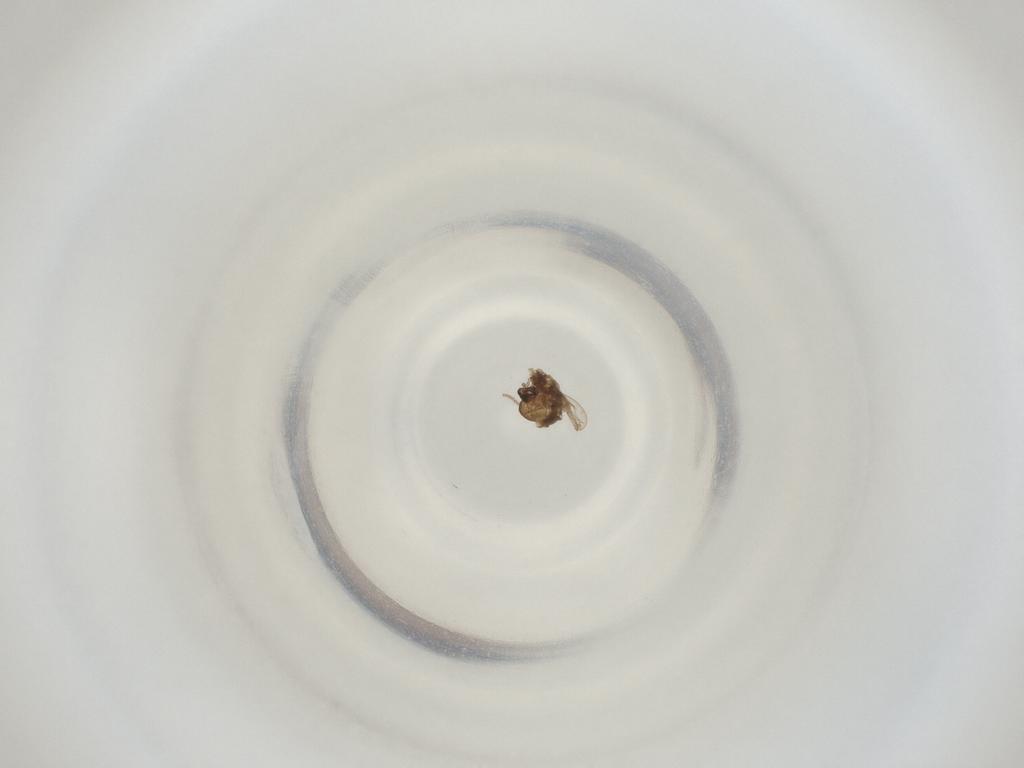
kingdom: Animalia
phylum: Arthropoda
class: Insecta
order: Diptera
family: Cecidomyiidae
